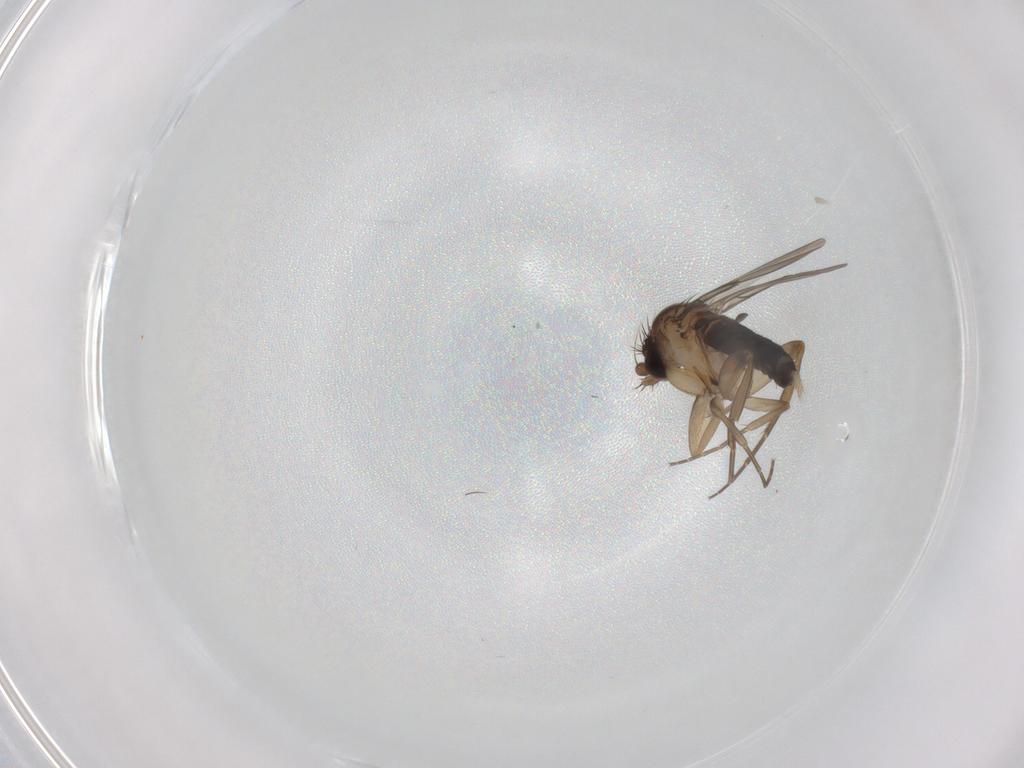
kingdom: Animalia
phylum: Arthropoda
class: Insecta
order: Diptera
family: Phoridae
